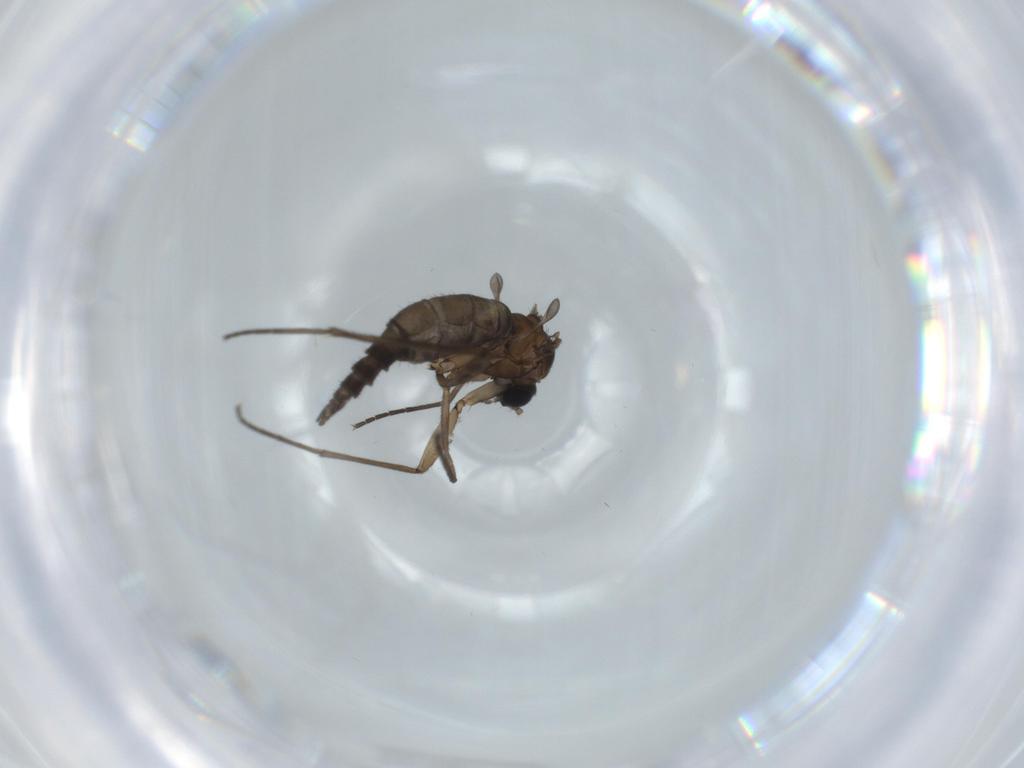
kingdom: Animalia
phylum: Arthropoda
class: Insecta
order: Diptera
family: Sciaridae
